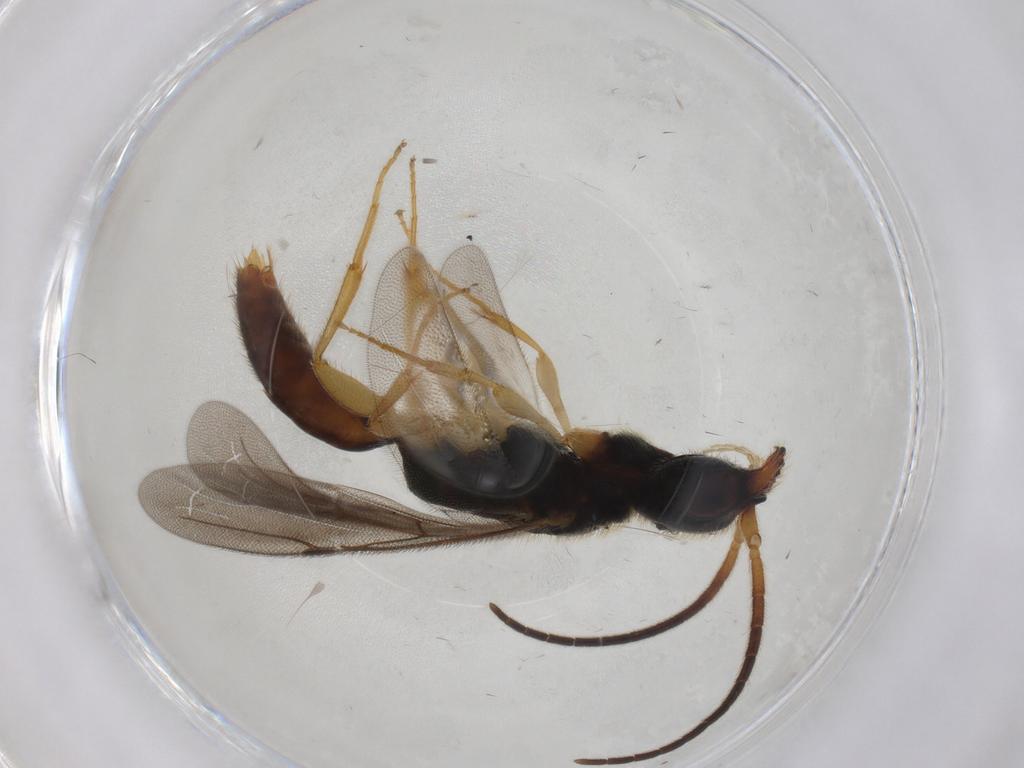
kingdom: Animalia
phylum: Arthropoda
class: Insecta
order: Hymenoptera
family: Bethylidae
